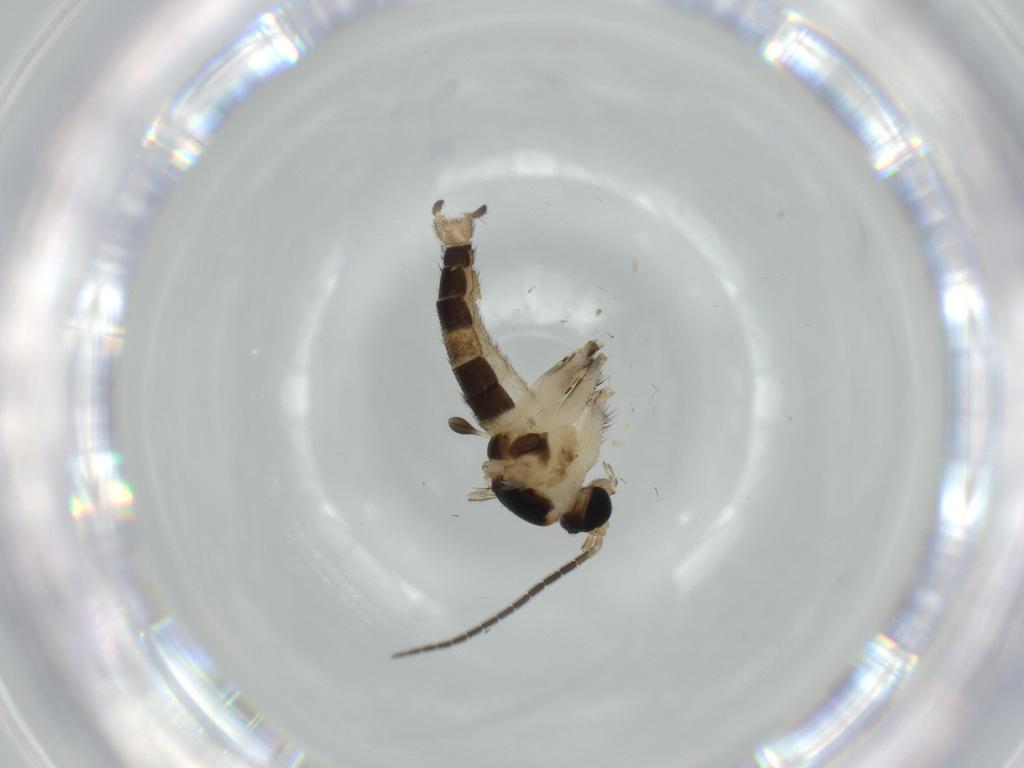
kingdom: Animalia
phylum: Arthropoda
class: Insecta
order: Diptera
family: Sciaridae
